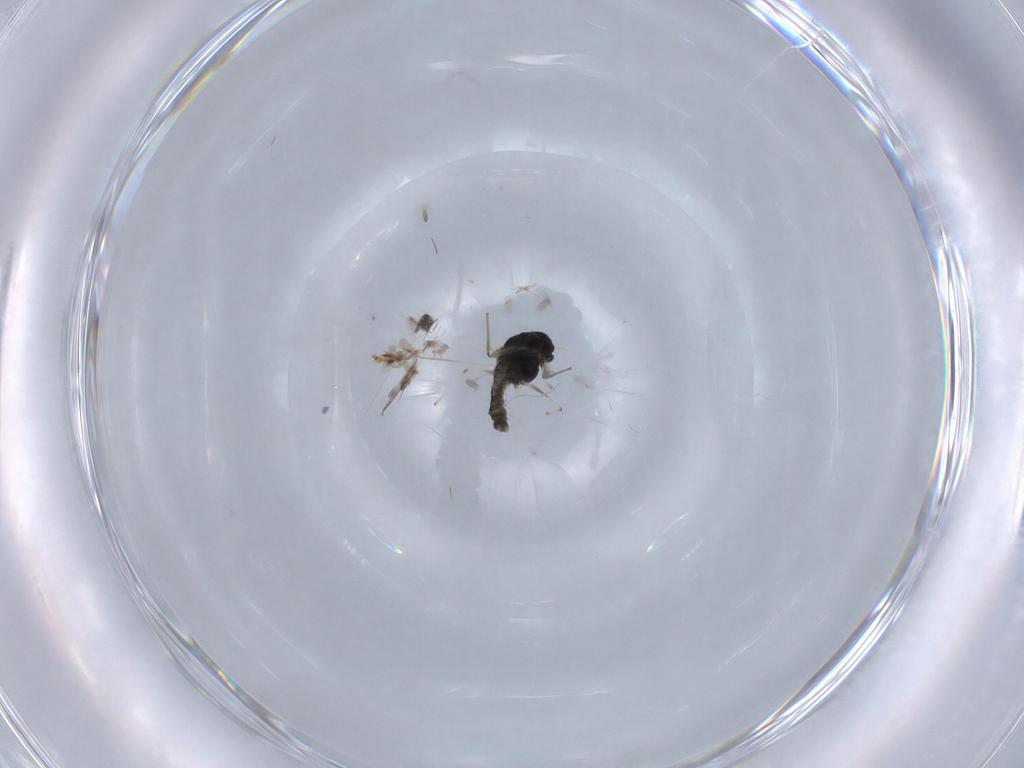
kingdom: Animalia
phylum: Arthropoda
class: Insecta
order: Diptera
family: Chironomidae
